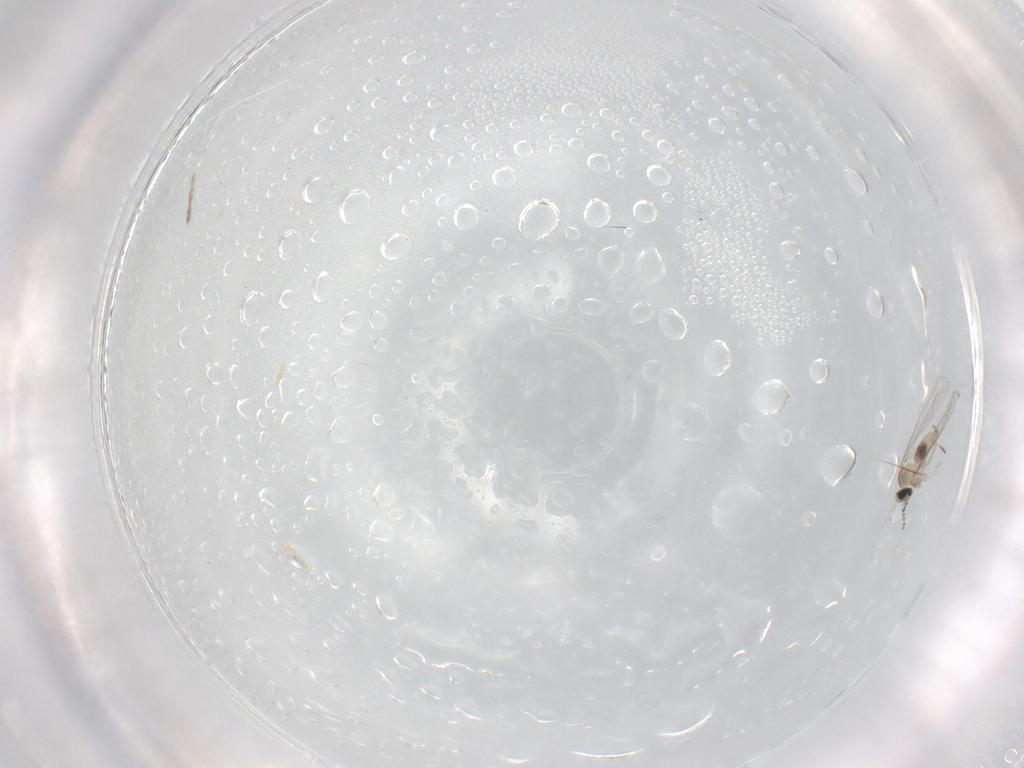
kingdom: Animalia
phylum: Arthropoda
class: Insecta
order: Diptera
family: Cecidomyiidae
